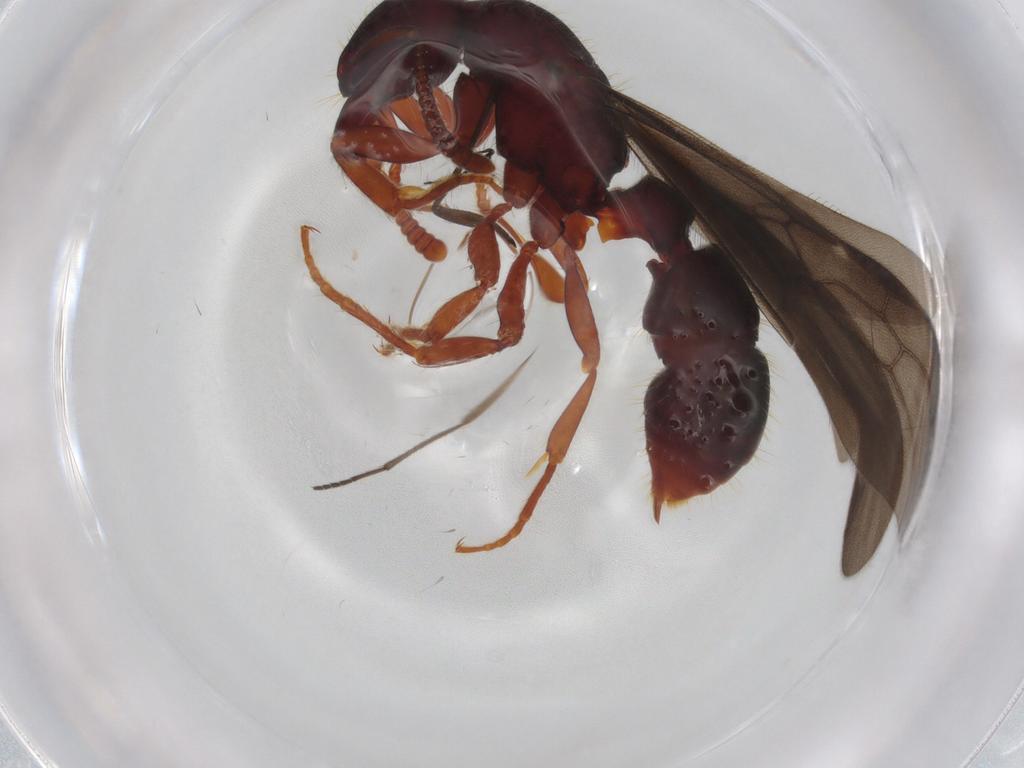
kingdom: Animalia
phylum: Arthropoda
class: Insecta
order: Hymenoptera
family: Formicidae
